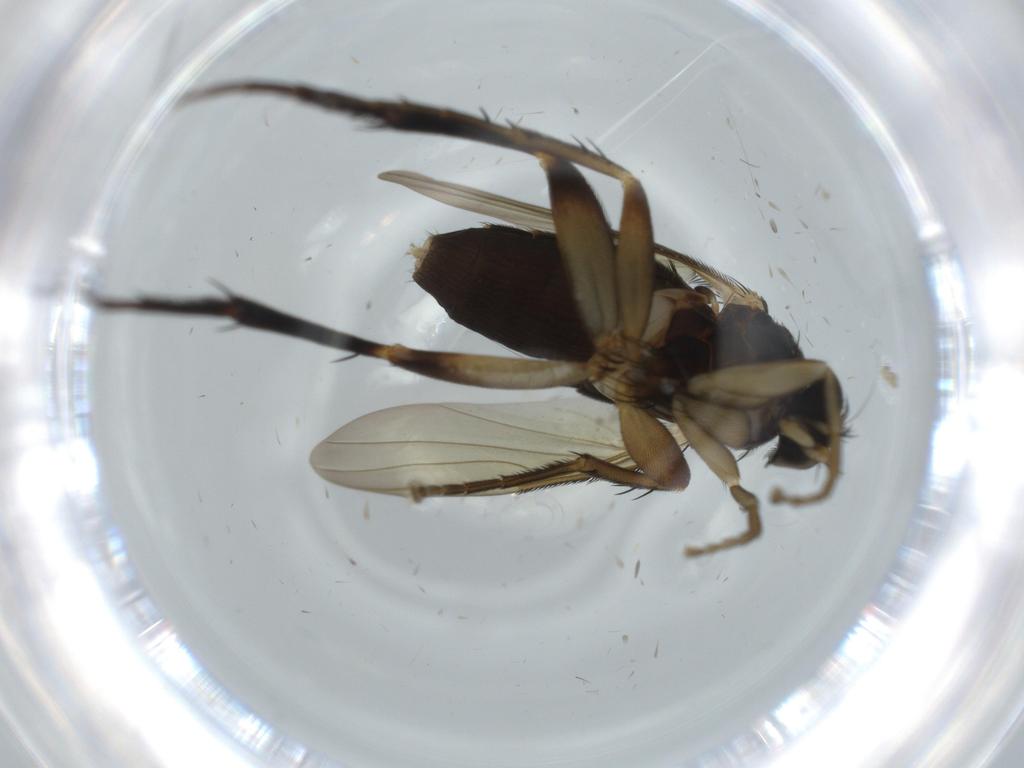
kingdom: Animalia
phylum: Arthropoda
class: Insecta
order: Diptera
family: Phoridae
